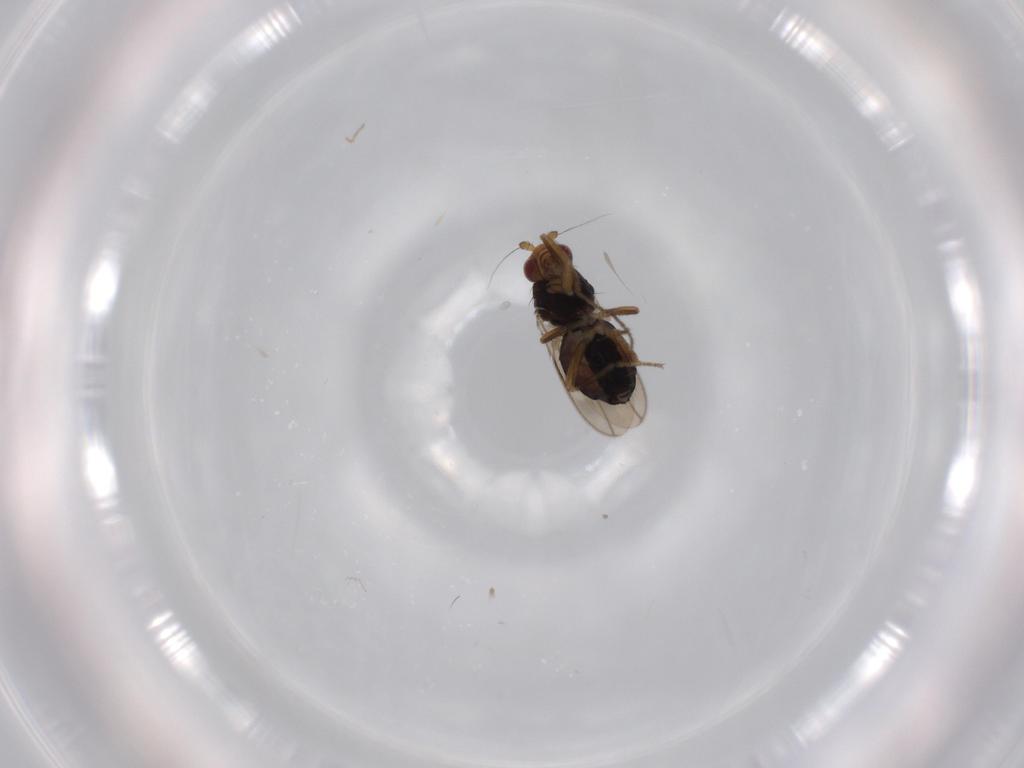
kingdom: Animalia
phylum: Arthropoda
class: Insecta
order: Diptera
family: Sphaeroceridae
